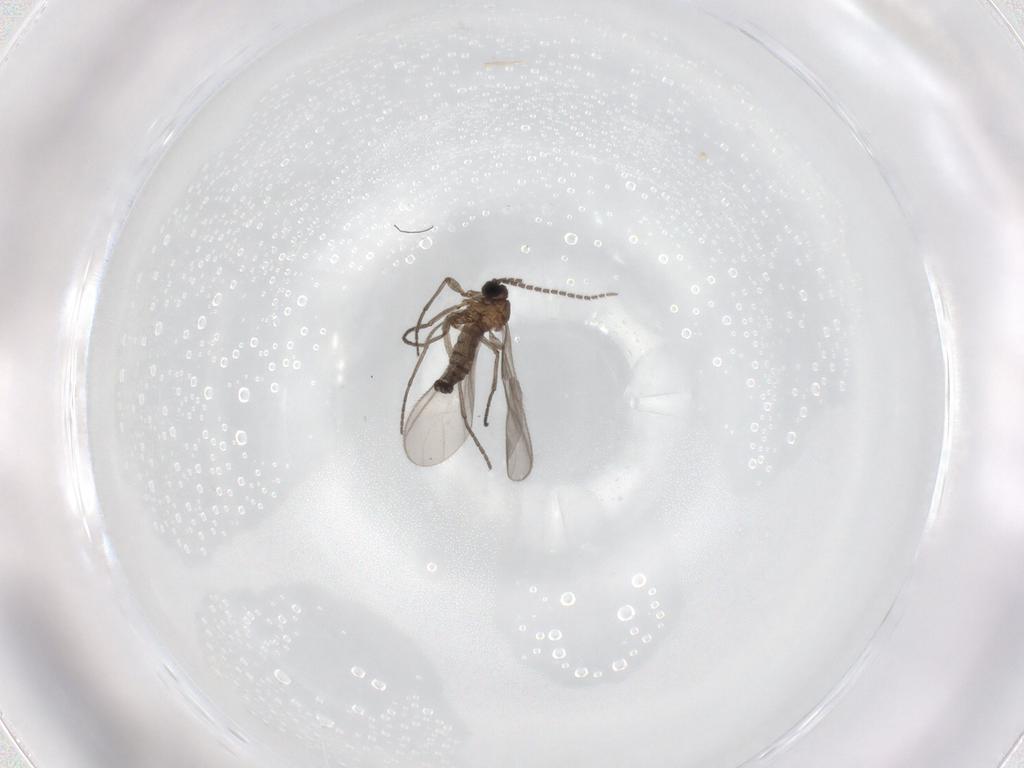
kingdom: Animalia
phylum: Arthropoda
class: Insecta
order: Diptera
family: Sciaridae
